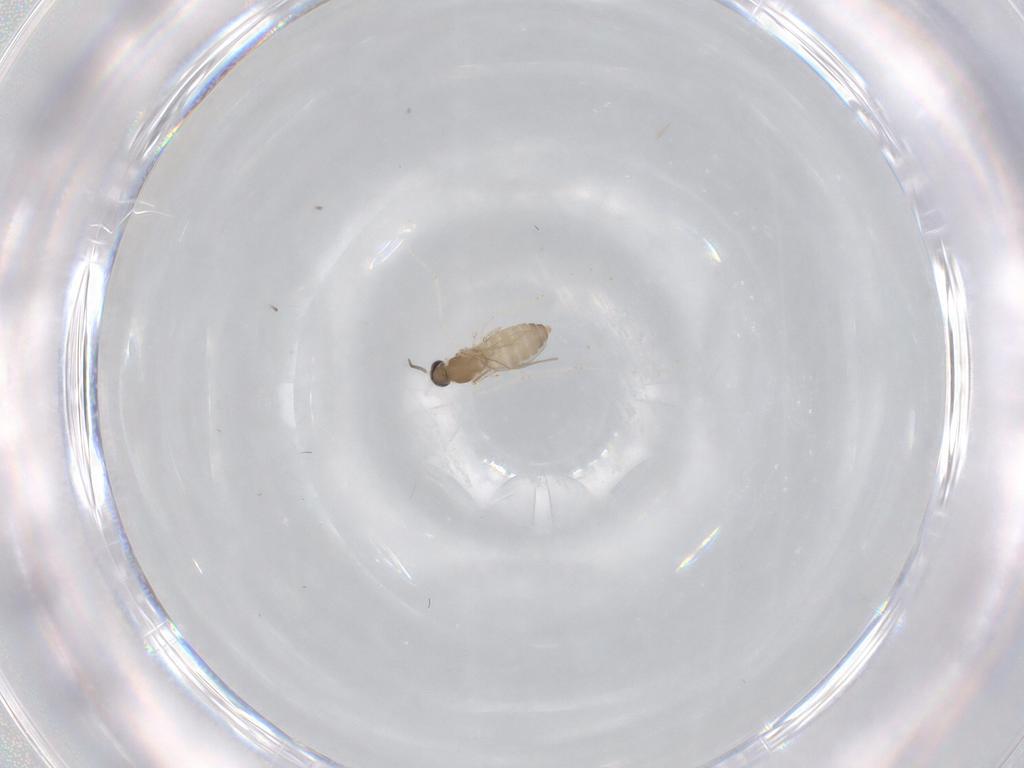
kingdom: Animalia
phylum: Arthropoda
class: Insecta
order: Diptera
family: Cecidomyiidae
